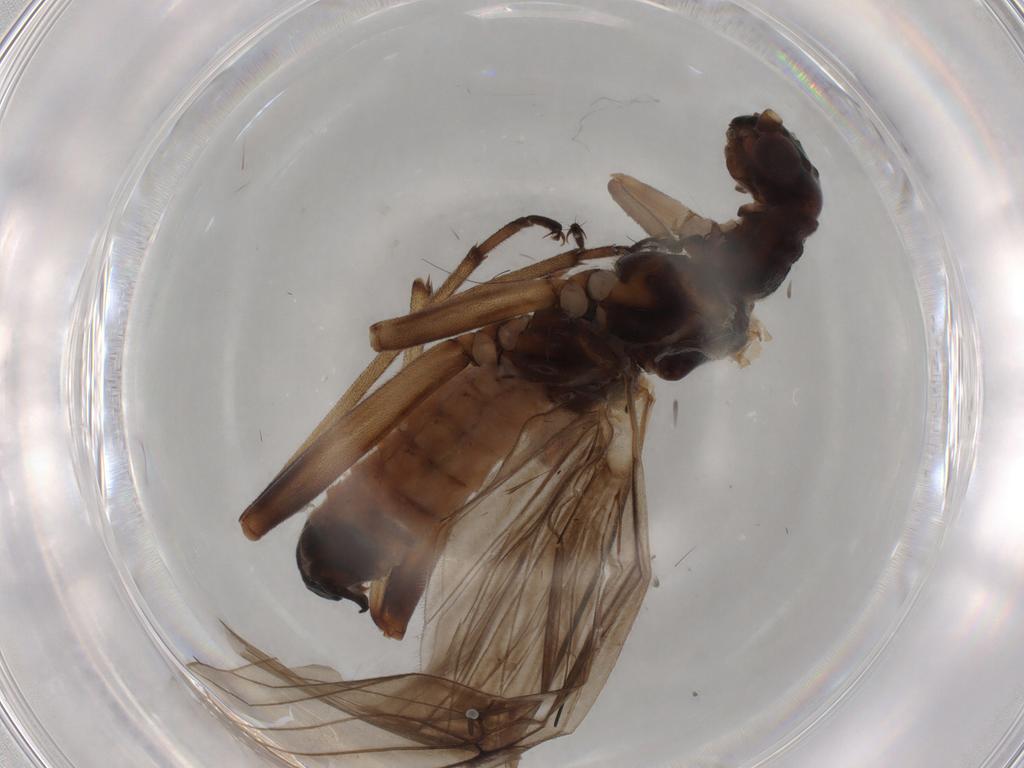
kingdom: Animalia
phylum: Arthropoda
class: Insecta
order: Plecoptera
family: Nemouridae
